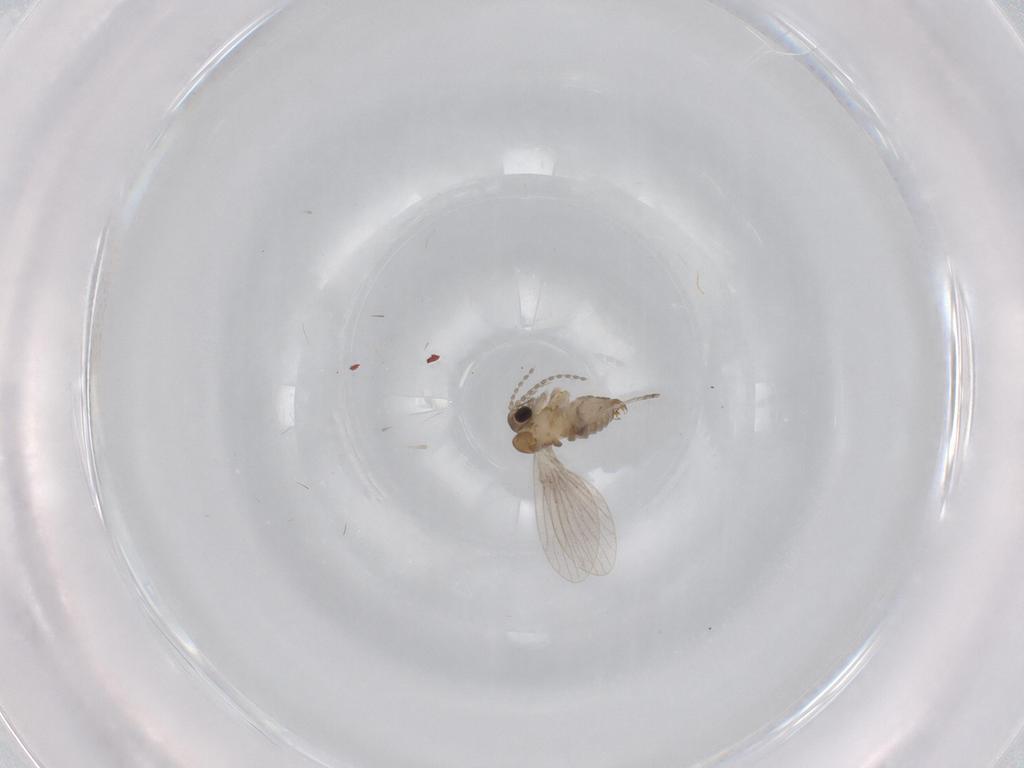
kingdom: Animalia
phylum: Arthropoda
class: Insecta
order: Diptera
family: Chironomidae
